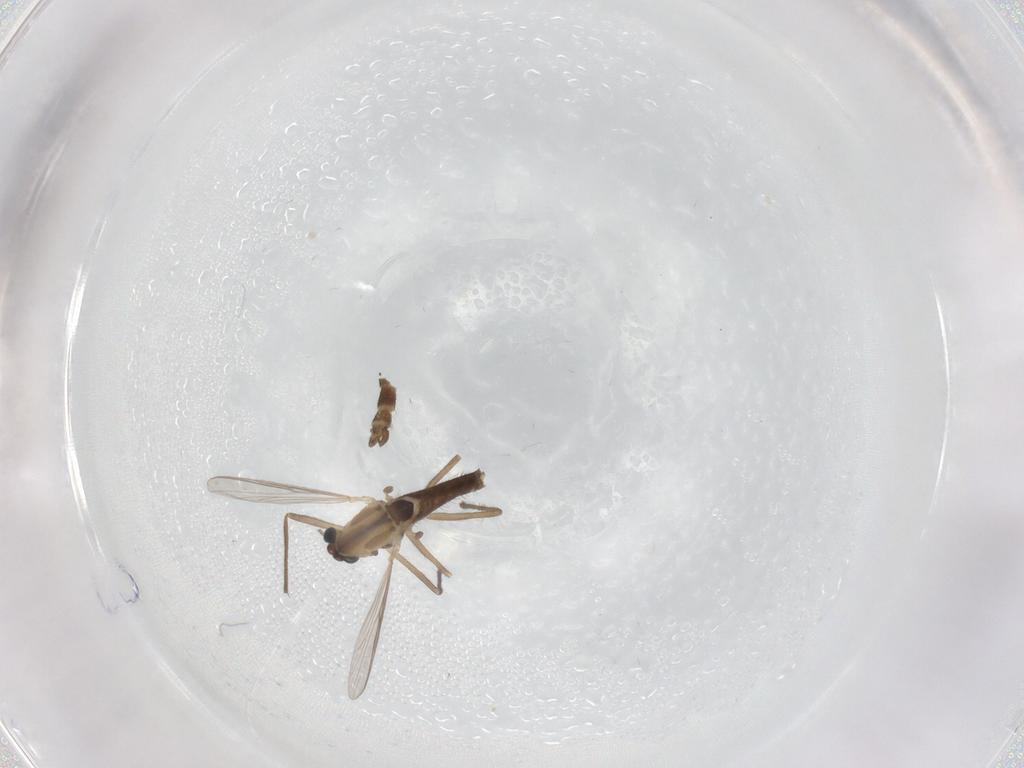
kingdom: Animalia
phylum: Arthropoda
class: Insecta
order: Diptera
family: Chironomidae
